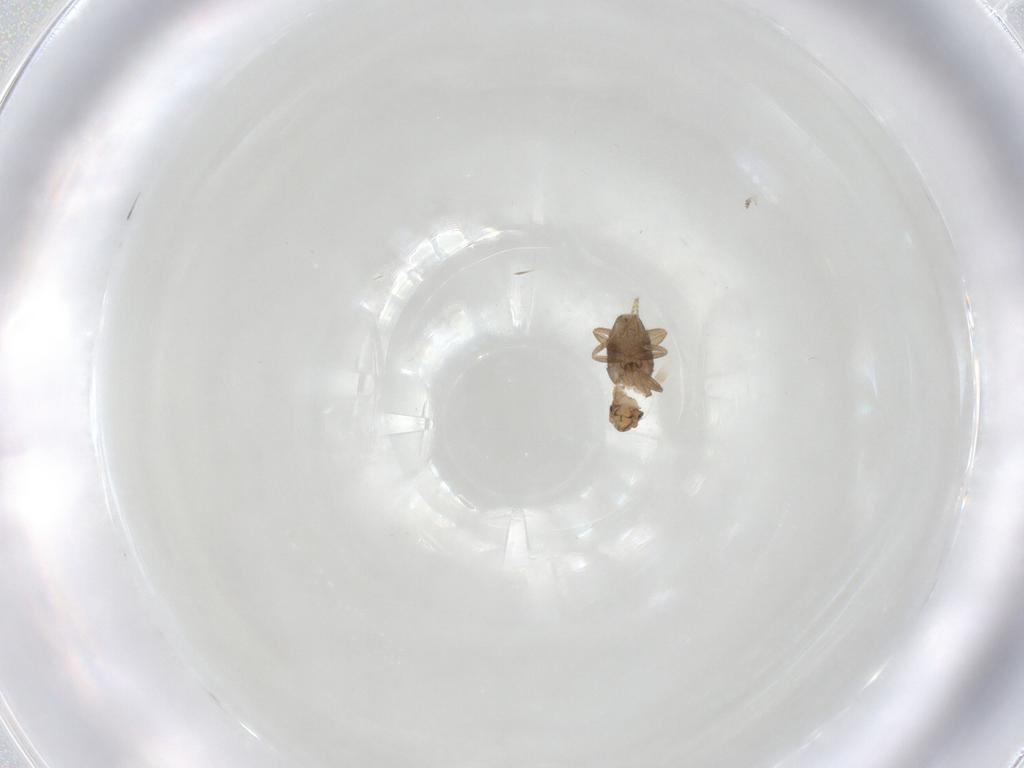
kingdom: Animalia
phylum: Arthropoda
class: Insecta
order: Diptera
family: Phoridae
